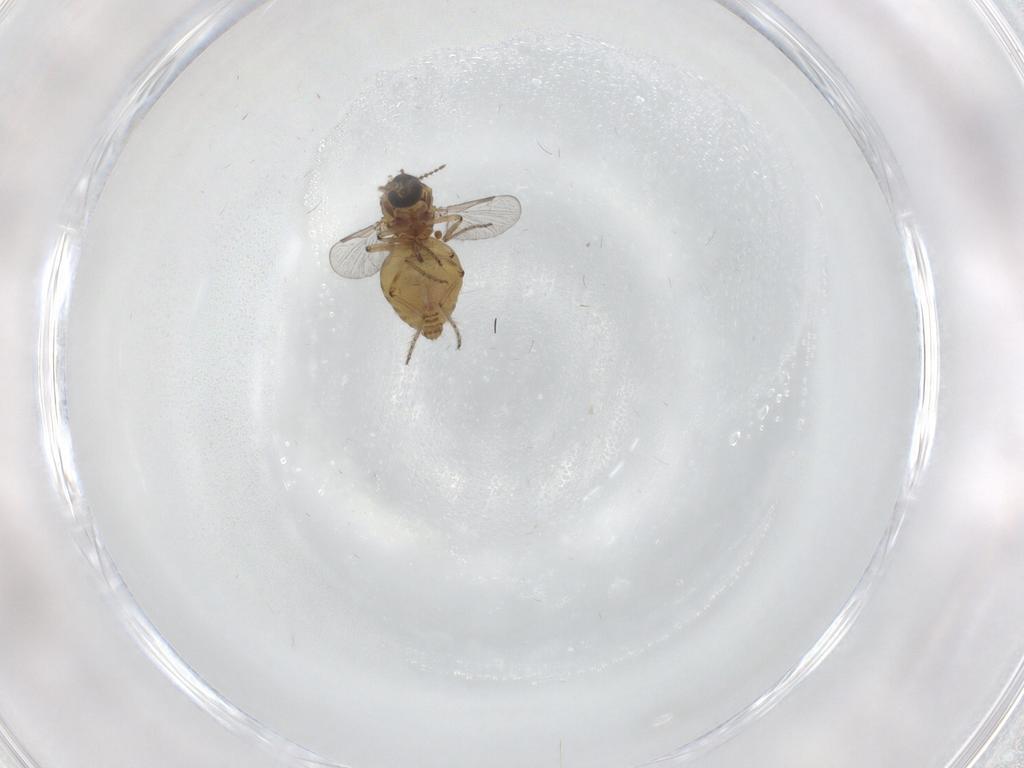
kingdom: Animalia
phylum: Arthropoda
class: Insecta
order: Diptera
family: Ceratopogonidae
